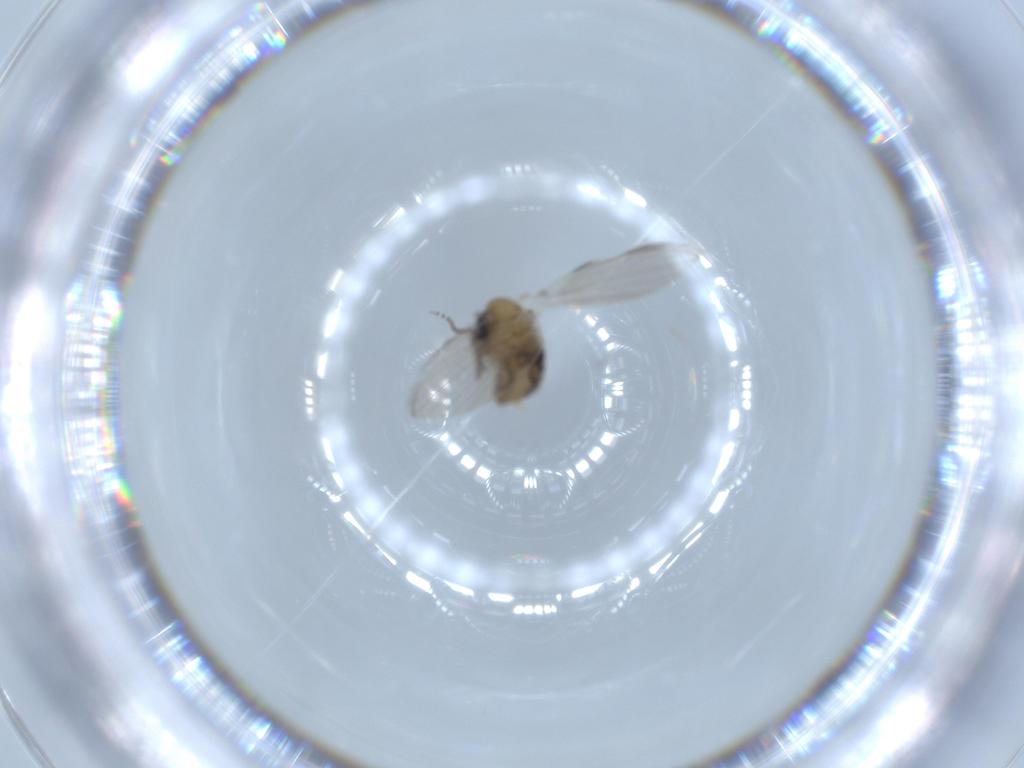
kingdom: Animalia
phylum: Arthropoda
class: Insecta
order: Diptera
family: Psychodidae
